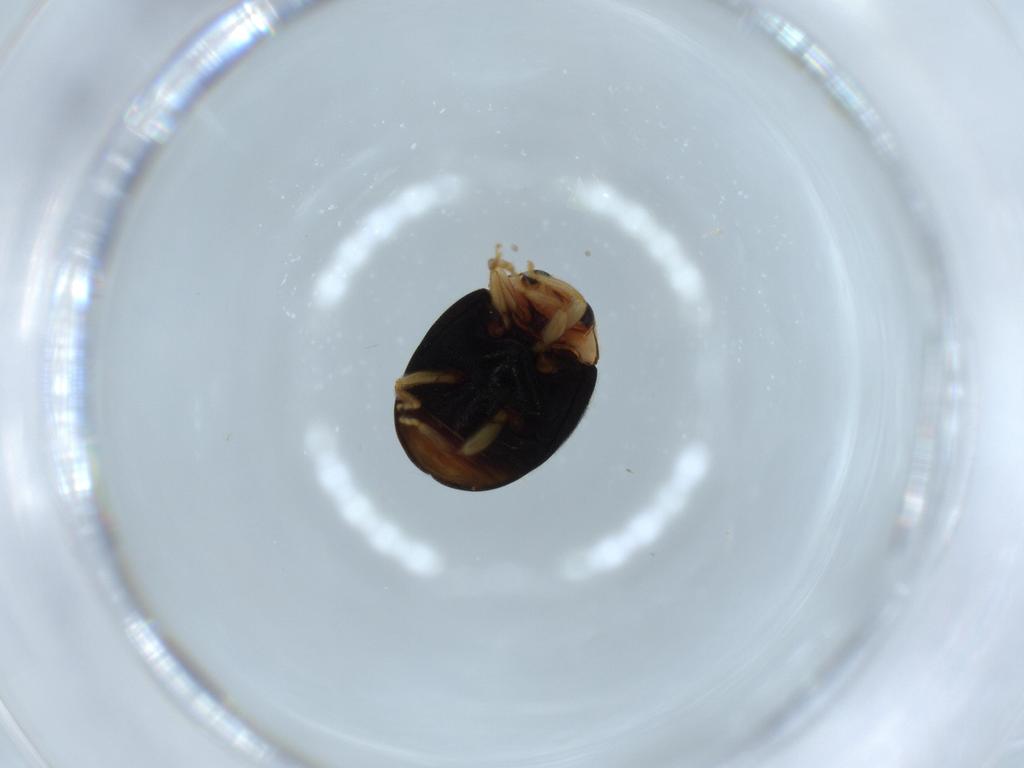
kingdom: Animalia
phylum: Arthropoda
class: Insecta
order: Coleoptera
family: Coccinellidae
